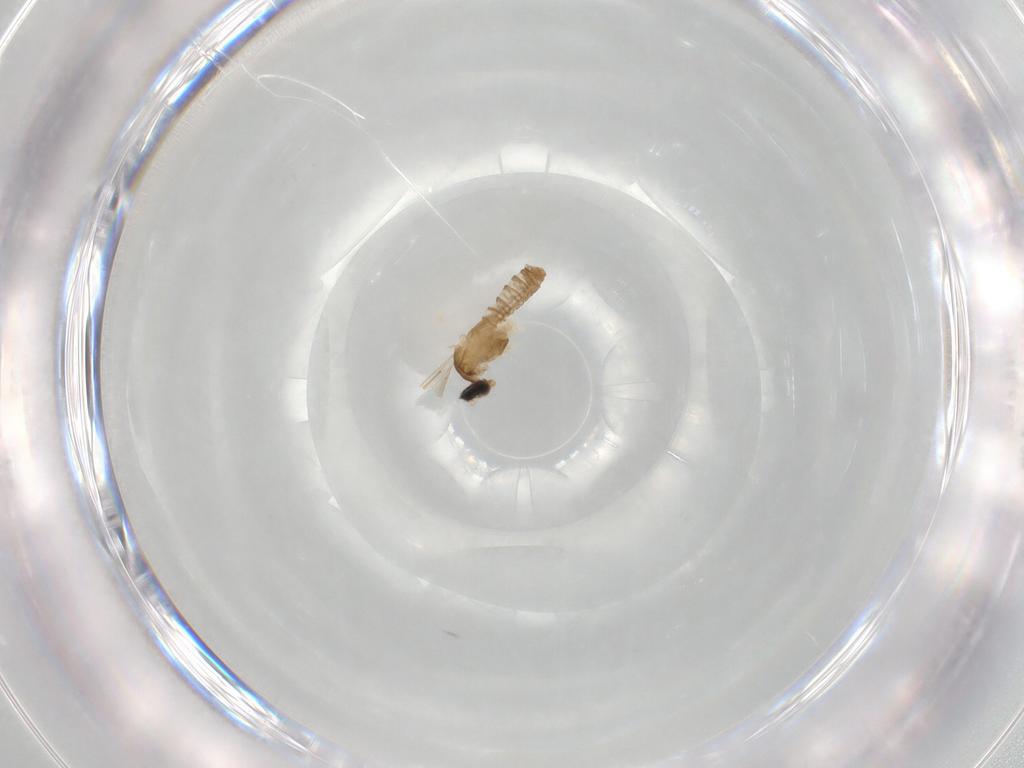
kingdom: Animalia
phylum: Arthropoda
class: Insecta
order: Diptera
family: Cecidomyiidae
